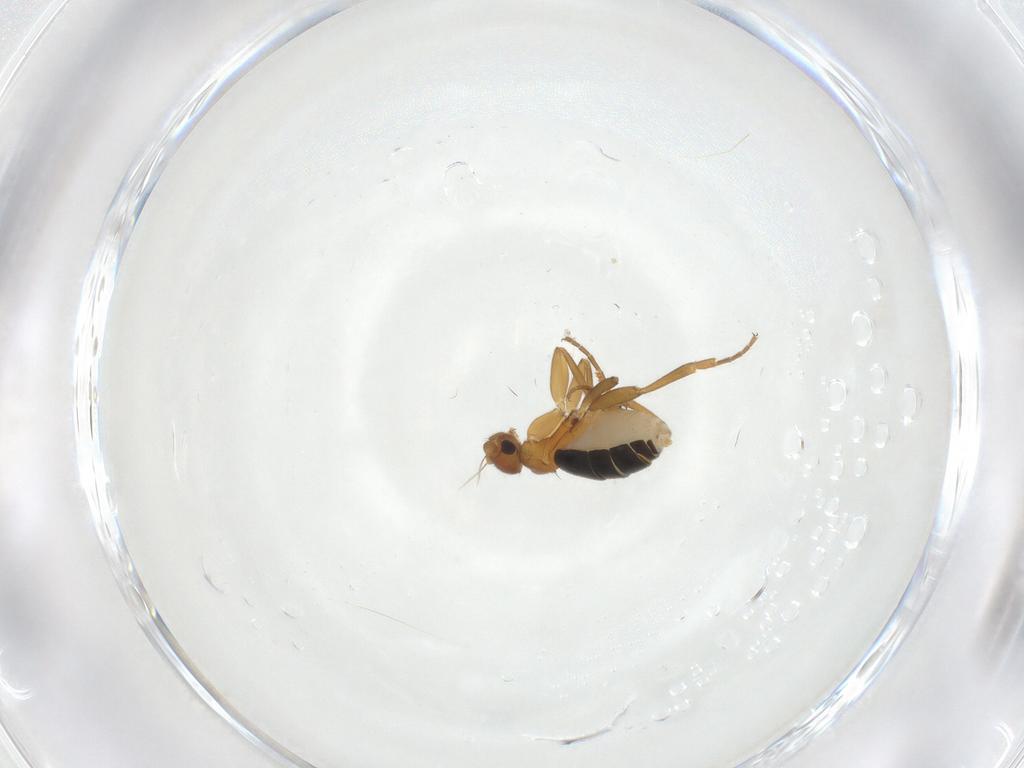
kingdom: Animalia
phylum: Arthropoda
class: Insecta
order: Diptera
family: Phoridae
